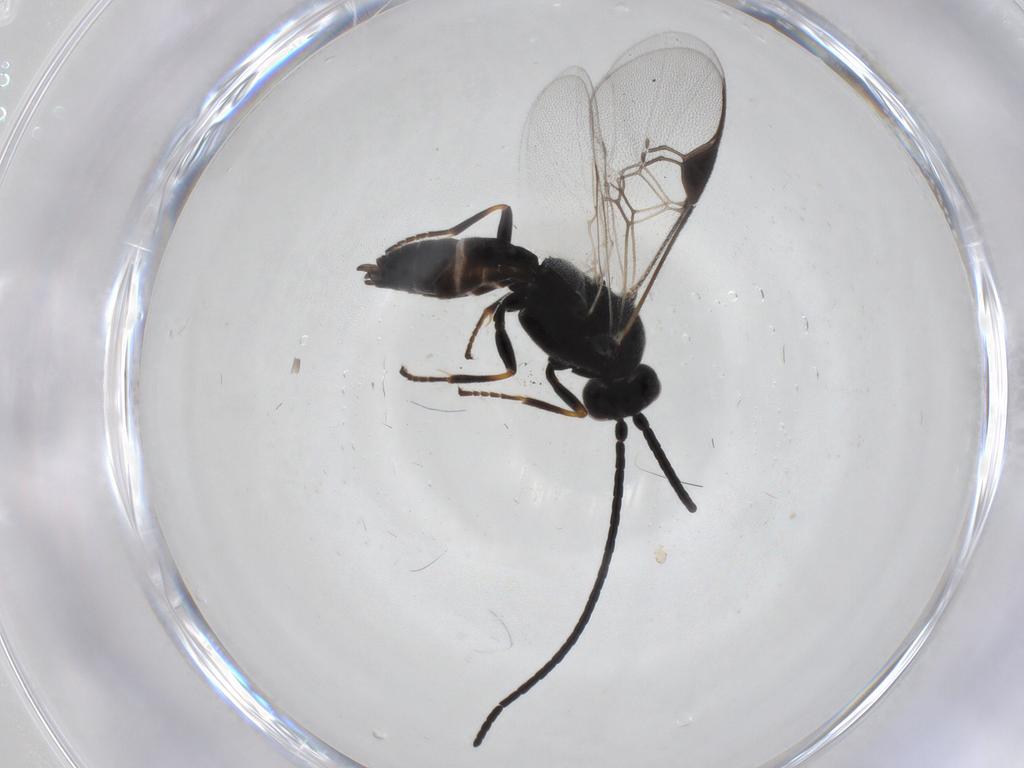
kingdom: Animalia
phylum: Arthropoda
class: Insecta
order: Hymenoptera
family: Braconidae
